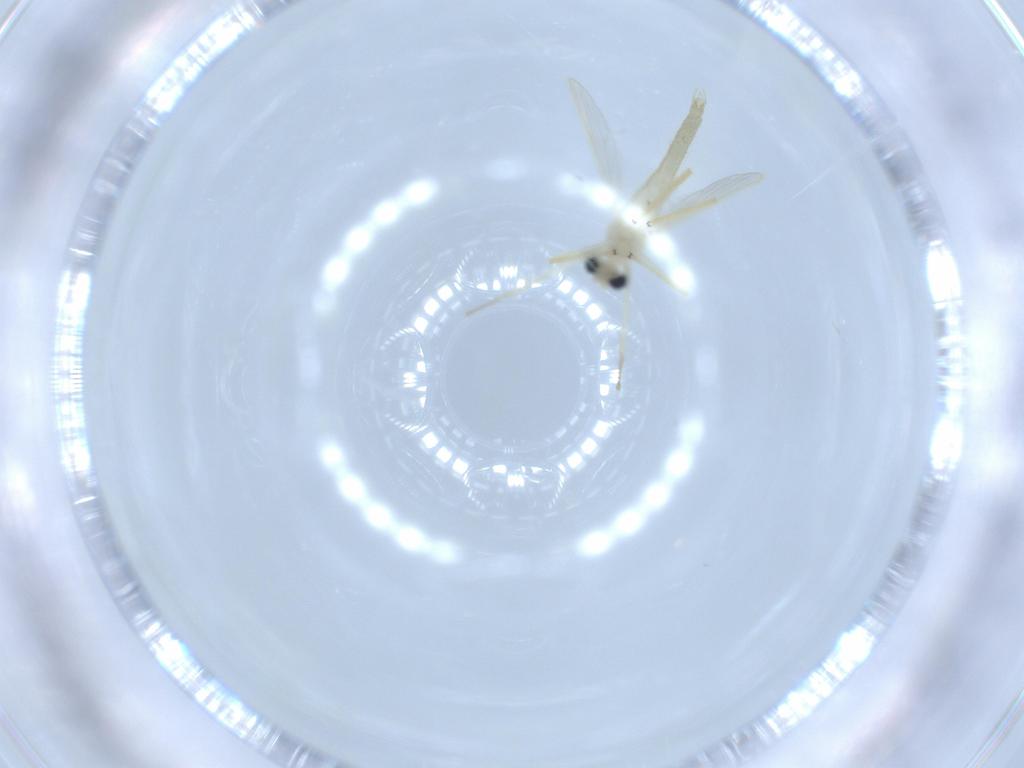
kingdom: Animalia
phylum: Arthropoda
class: Insecta
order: Diptera
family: Chironomidae
